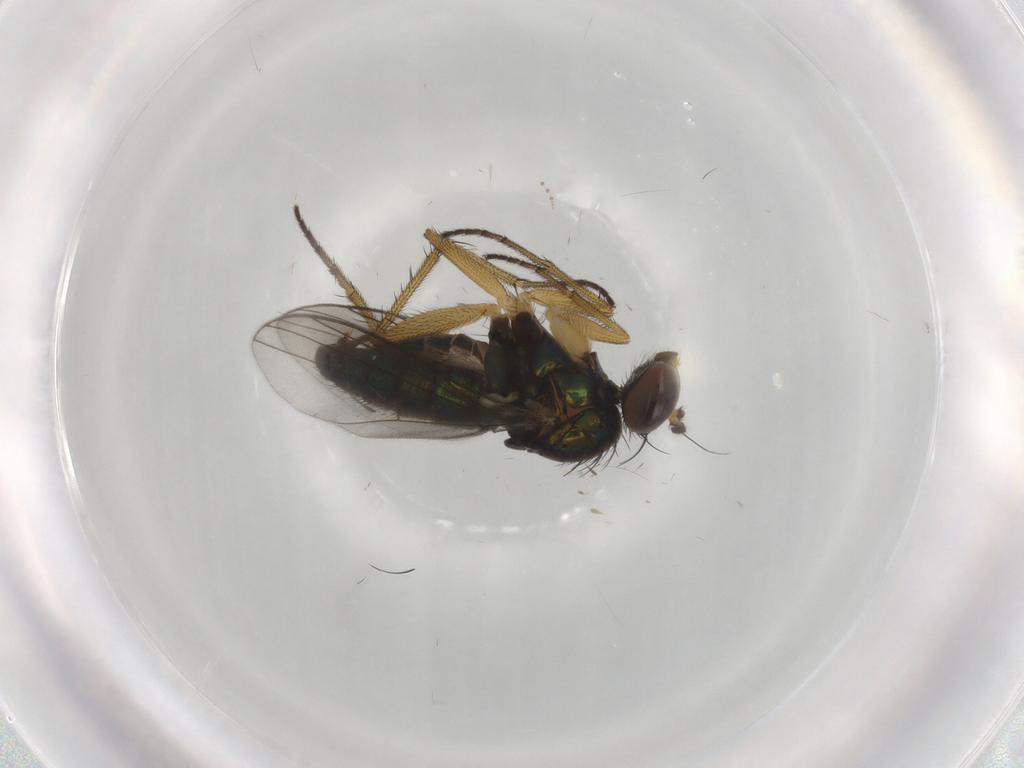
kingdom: Animalia
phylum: Arthropoda
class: Insecta
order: Diptera
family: Dolichopodidae
